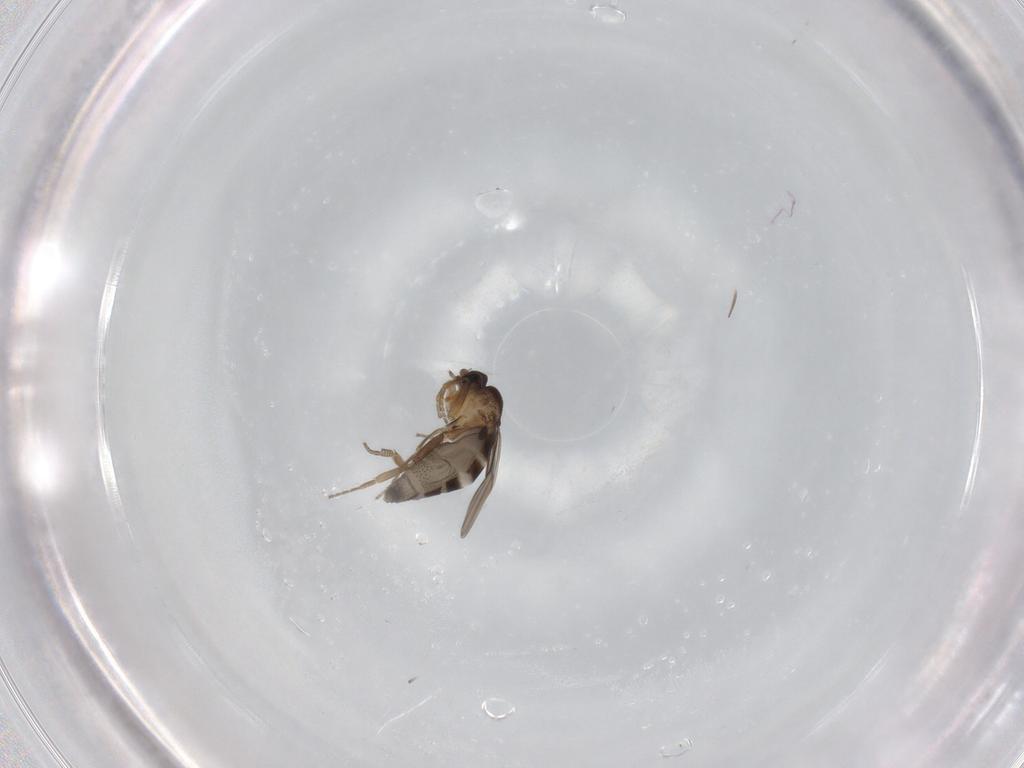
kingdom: Animalia
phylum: Arthropoda
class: Insecta
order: Diptera
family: Phoridae
